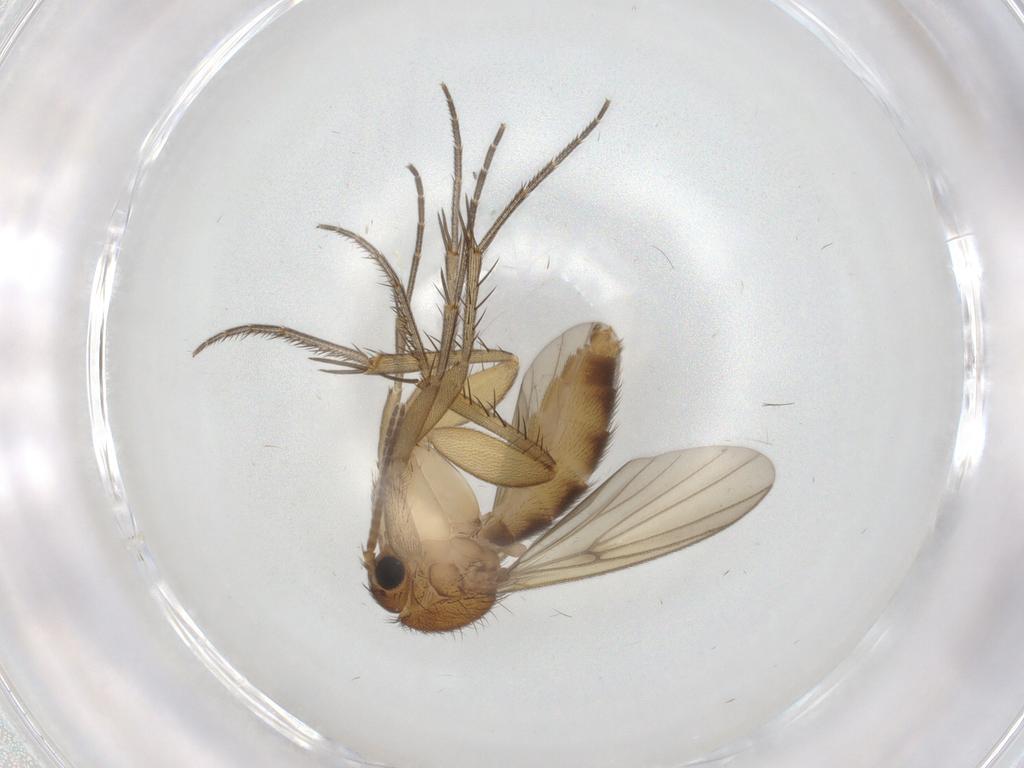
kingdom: Animalia
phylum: Arthropoda
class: Insecta
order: Diptera
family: Mycetophilidae
